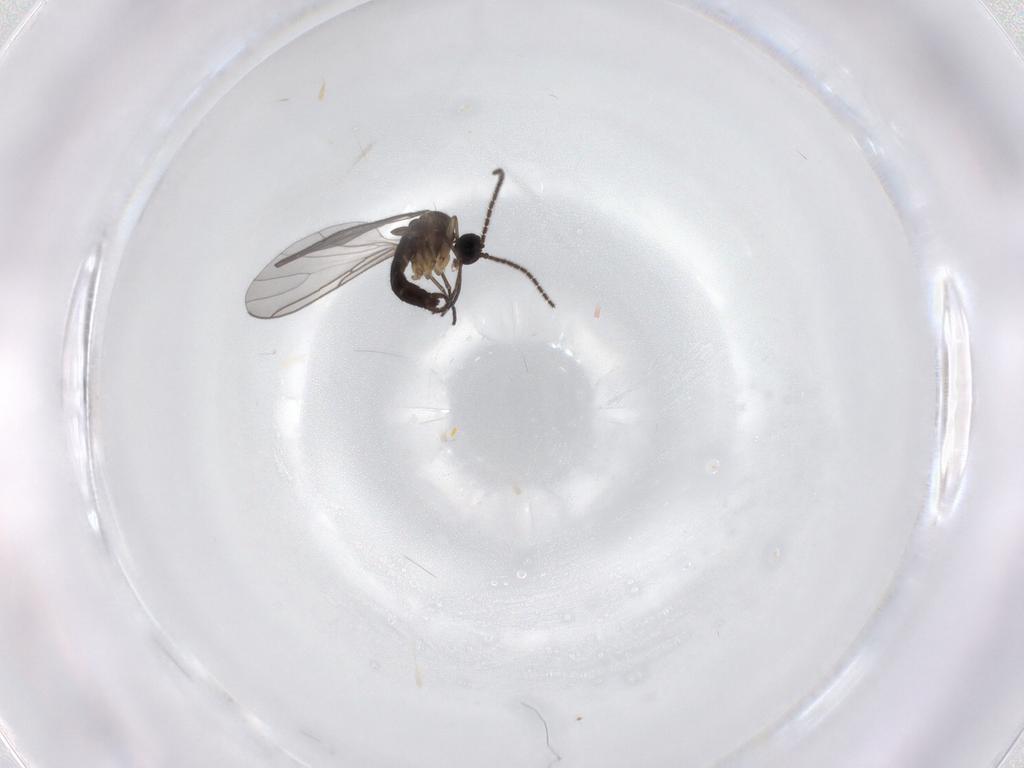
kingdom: Animalia
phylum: Arthropoda
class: Insecta
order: Diptera
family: Sciaridae
